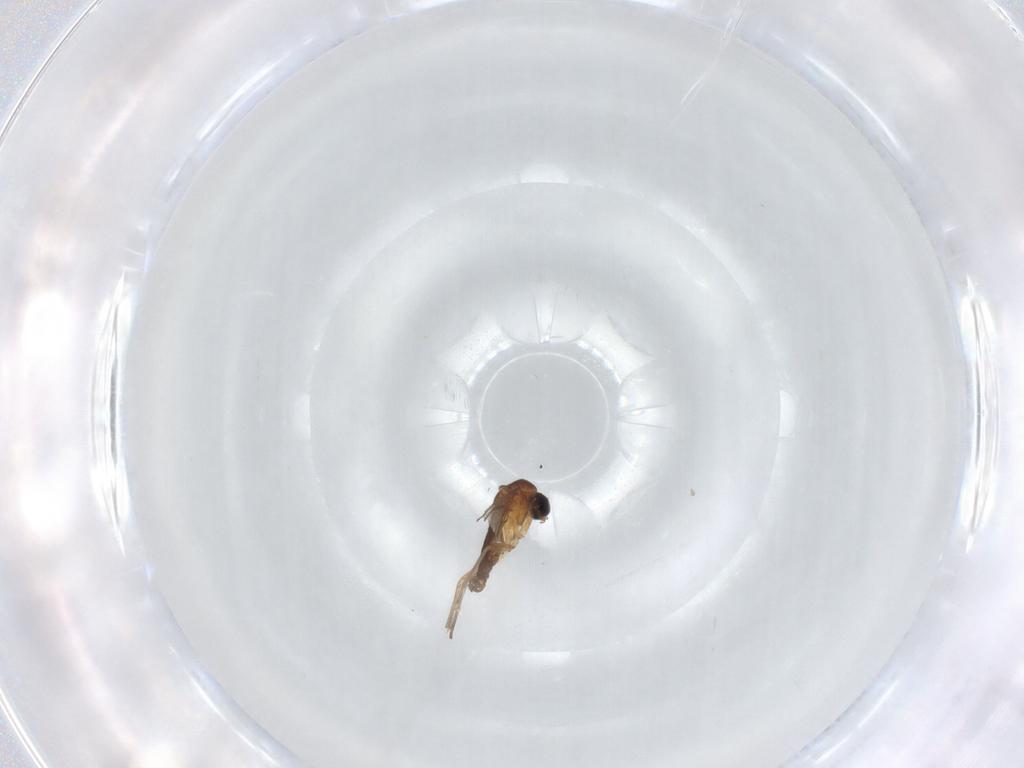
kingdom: Animalia
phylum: Arthropoda
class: Insecta
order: Diptera
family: Sciaridae
